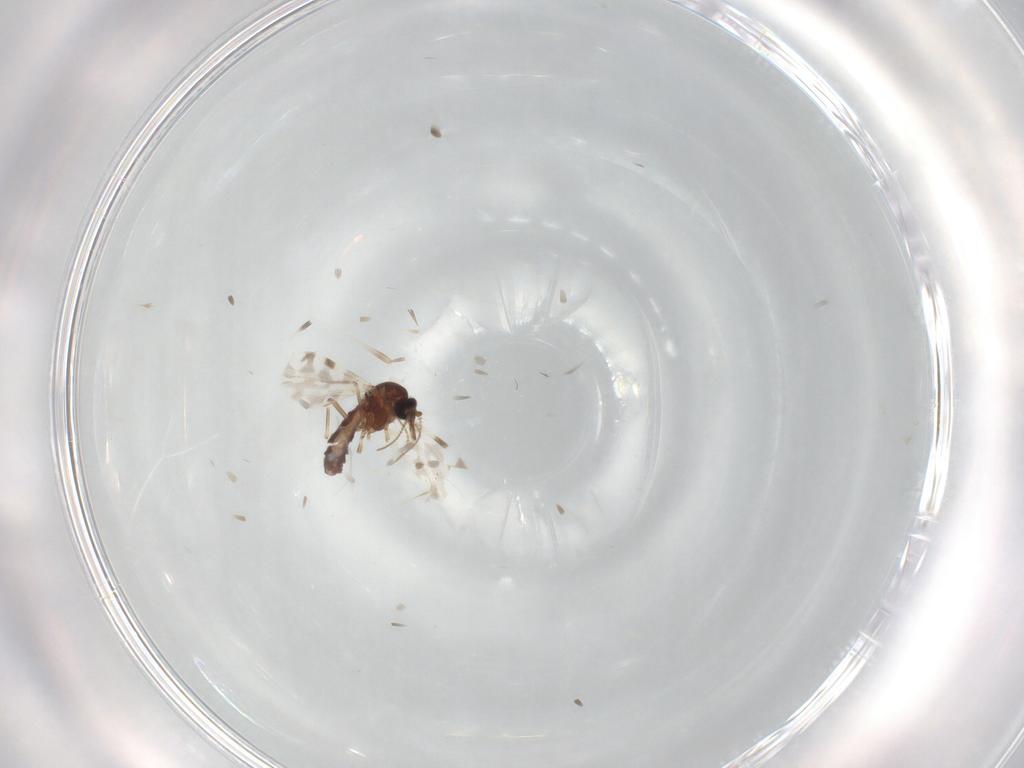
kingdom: Animalia
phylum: Arthropoda
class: Insecta
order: Diptera
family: Ceratopogonidae
